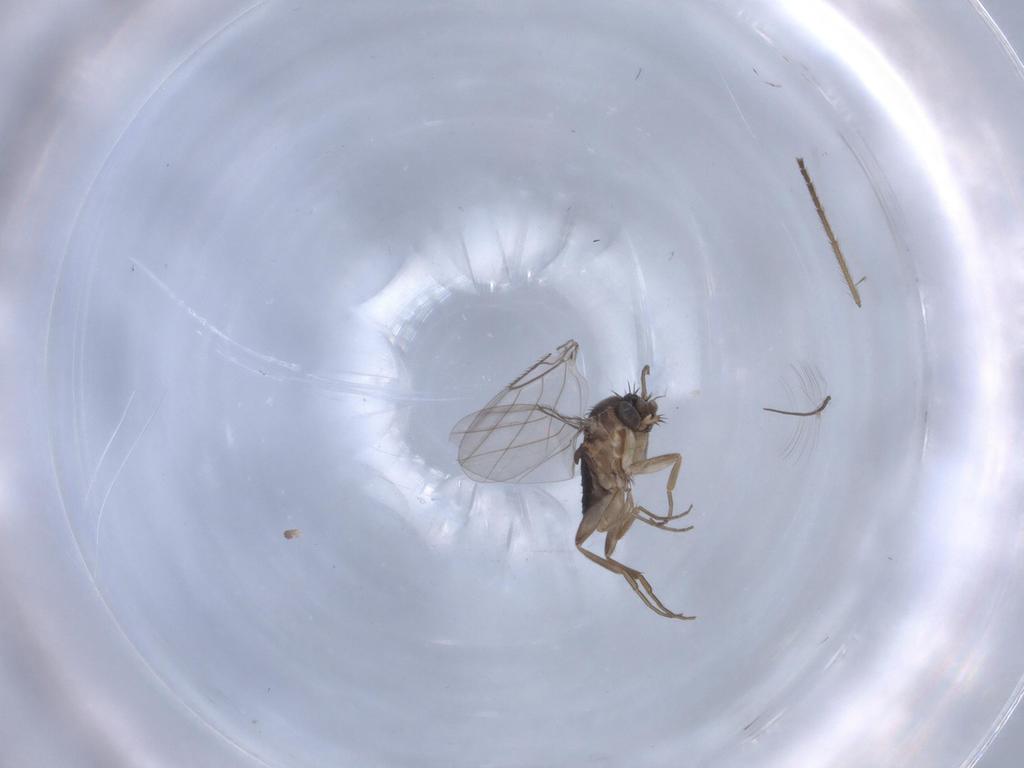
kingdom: Animalia
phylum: Arthropoda
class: Insecta
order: Diptera
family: Phoridae
